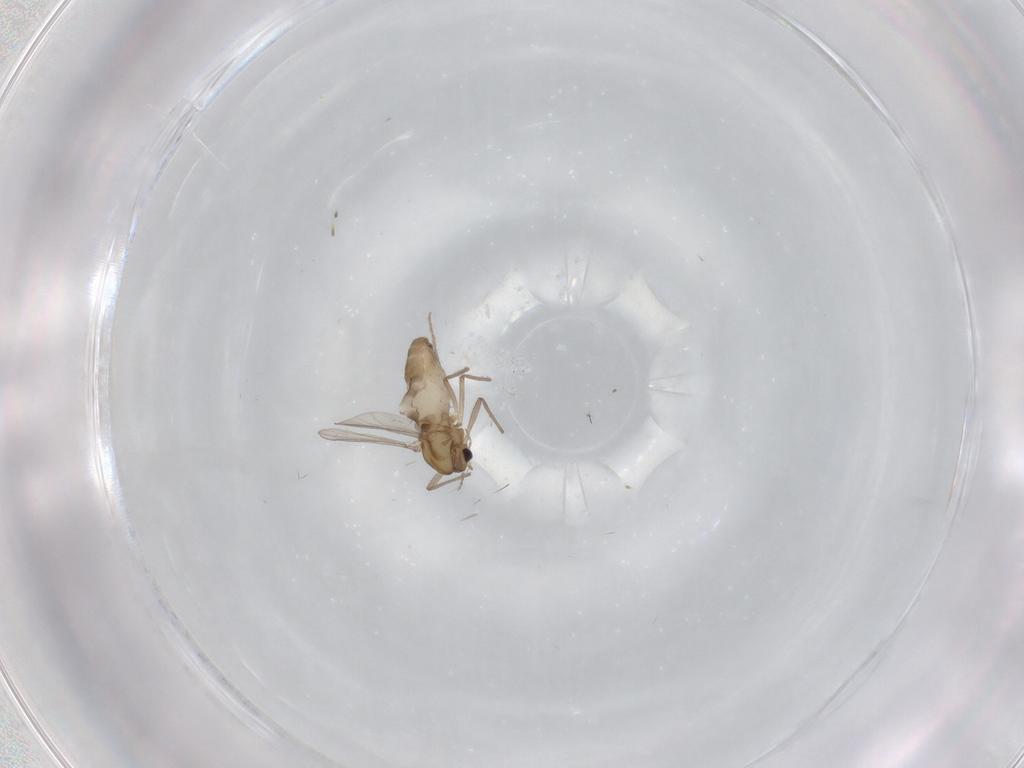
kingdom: Animalia
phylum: Arthropoda
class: Insecta
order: Diptera
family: Chironomidae
